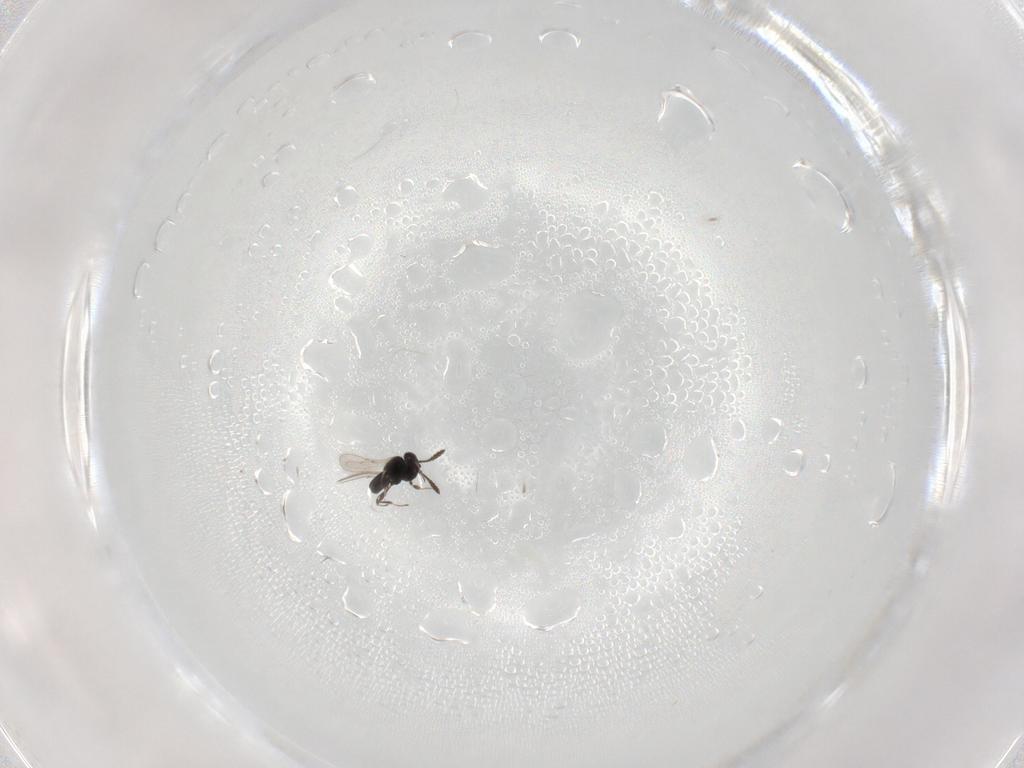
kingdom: Animalia
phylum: Arthropoda
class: Insecta
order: Hymenoptera
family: Scelionidae
